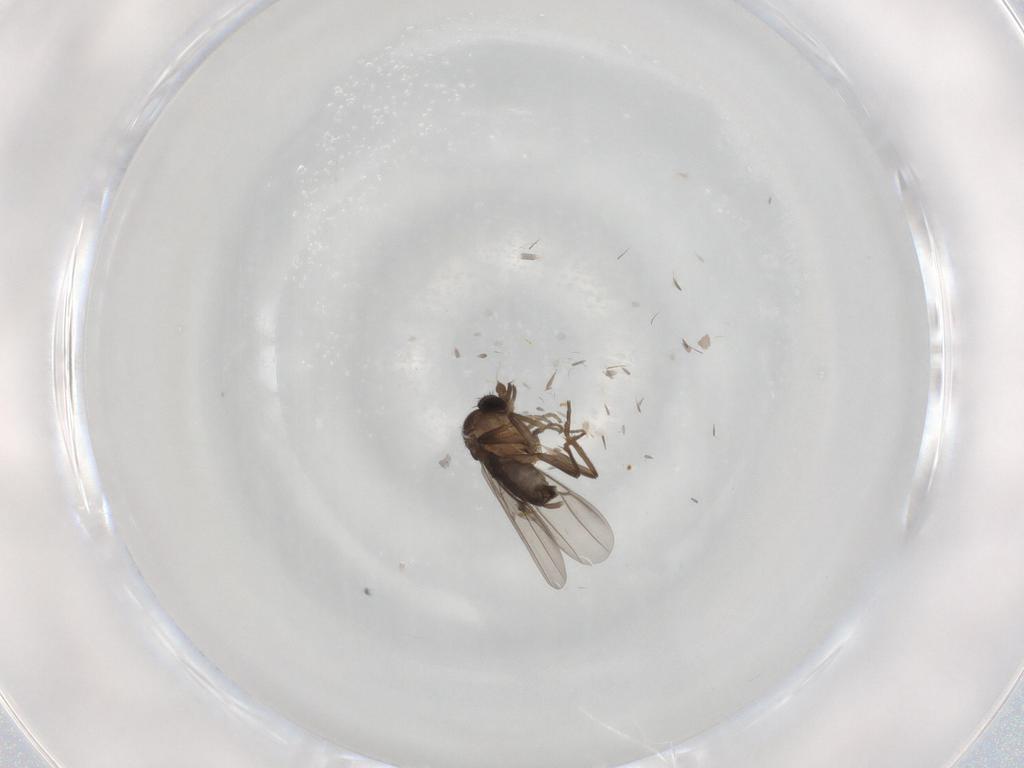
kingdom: Animalia
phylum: Arthropoda
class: Insecta
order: Diptera
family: Phoridae
